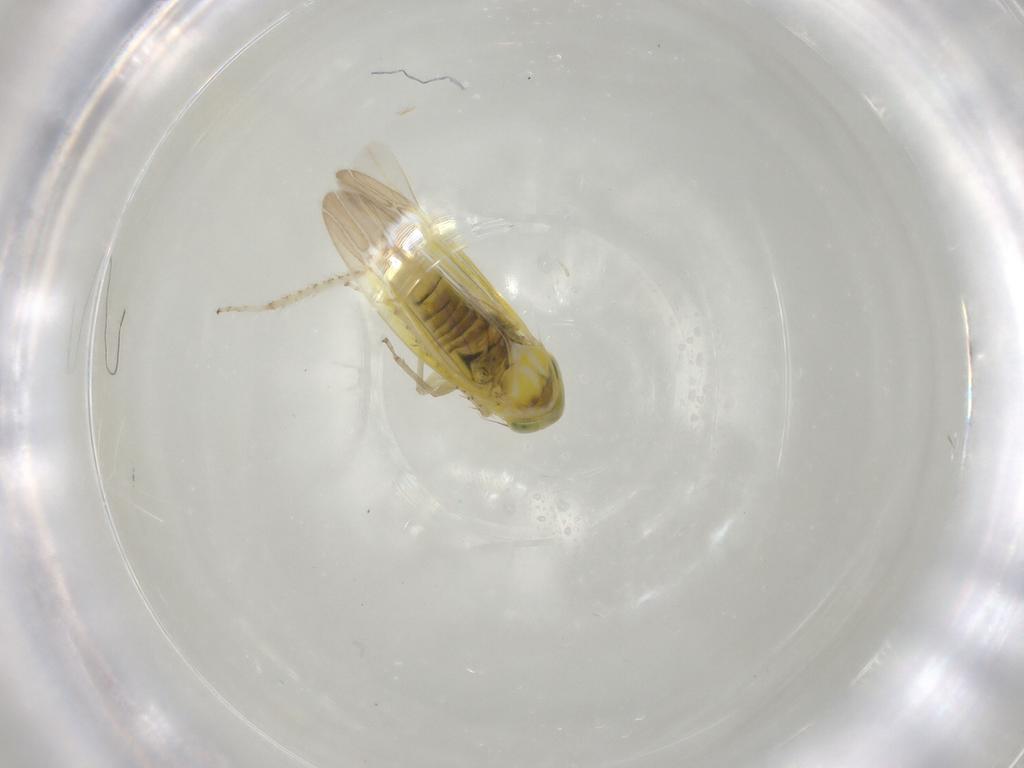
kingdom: Animalia
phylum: Arthropoda
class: Insecta
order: Hemiptera
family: Cicadellidae
